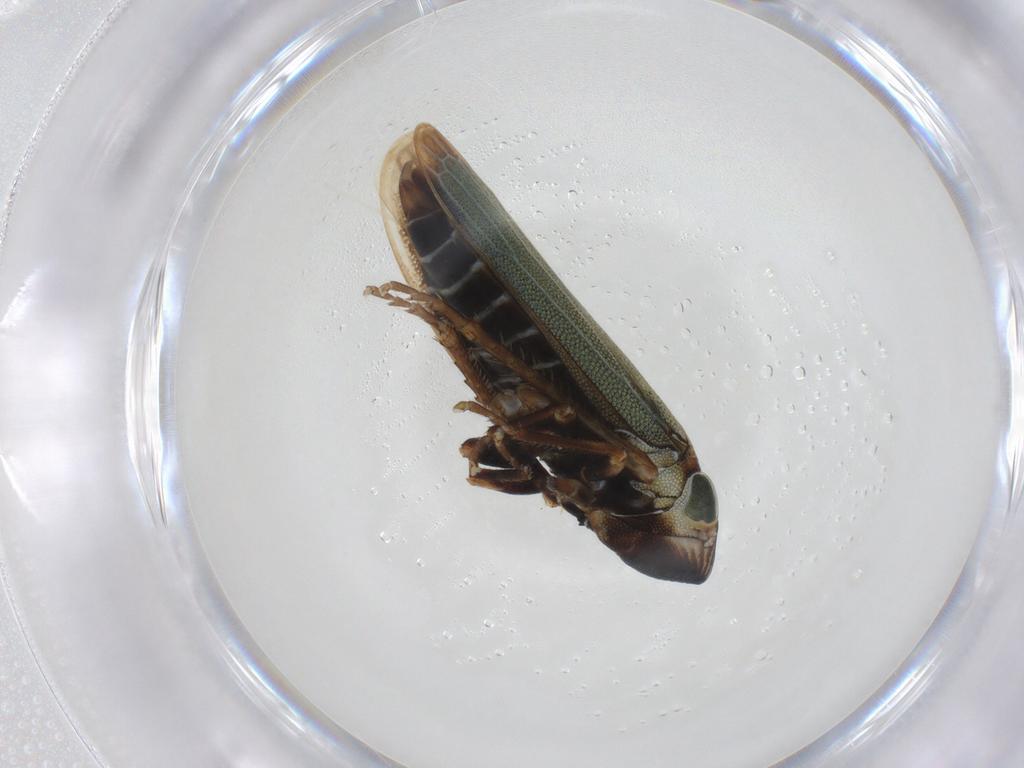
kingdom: Animalia
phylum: Arthropoda
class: Insecta
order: Hemiptera
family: Cicadellidae
